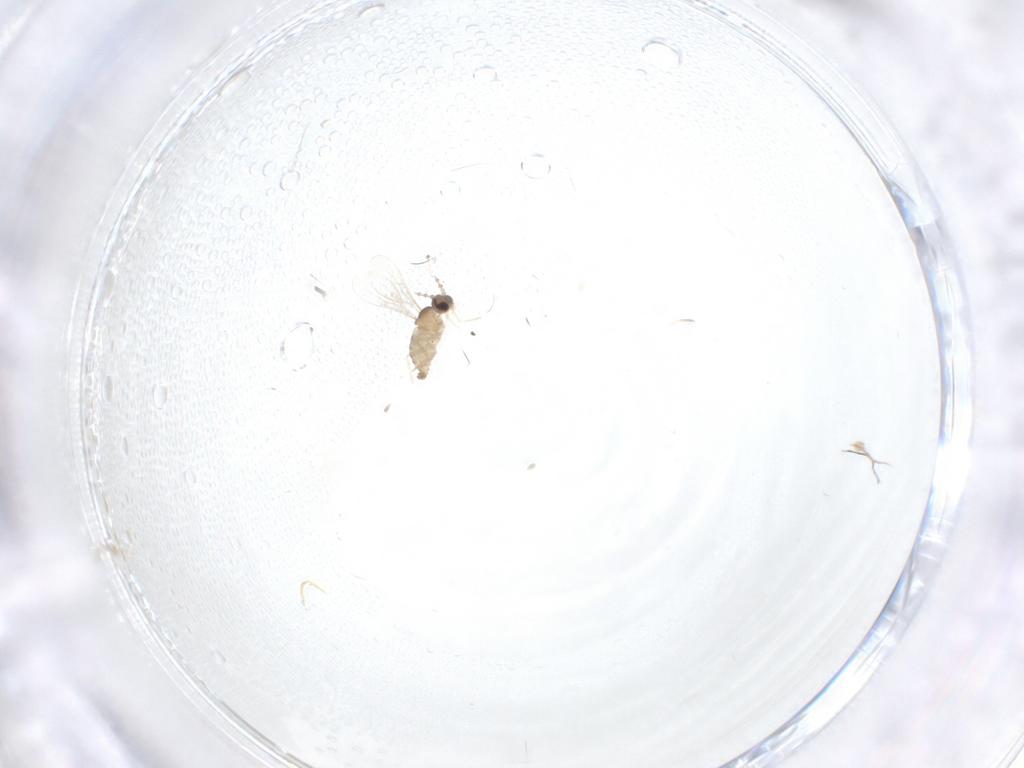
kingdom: Animalia
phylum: Arthropoda
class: Insecta
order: Diptera
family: Cecidomyiidae
